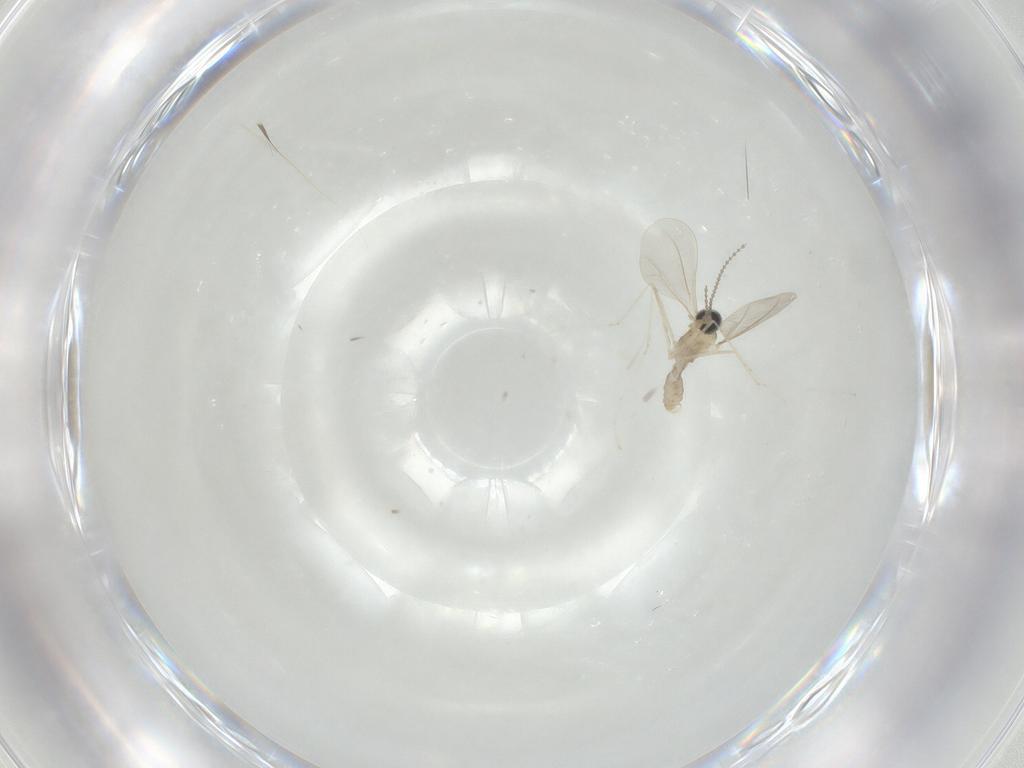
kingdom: Animalia
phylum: Arthropoda
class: Insecta
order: Diptera
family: Cecidomyiidae
